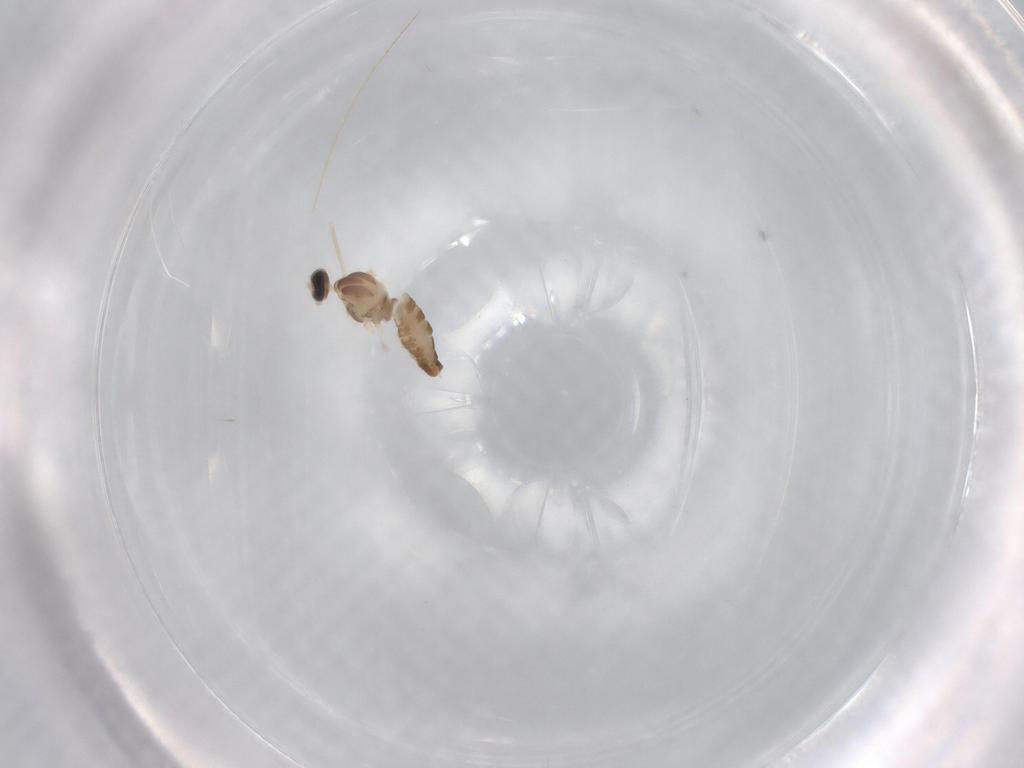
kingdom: Animalia
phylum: Arthropoda
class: Insecta
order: Diptera
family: Cecidomyiidae
